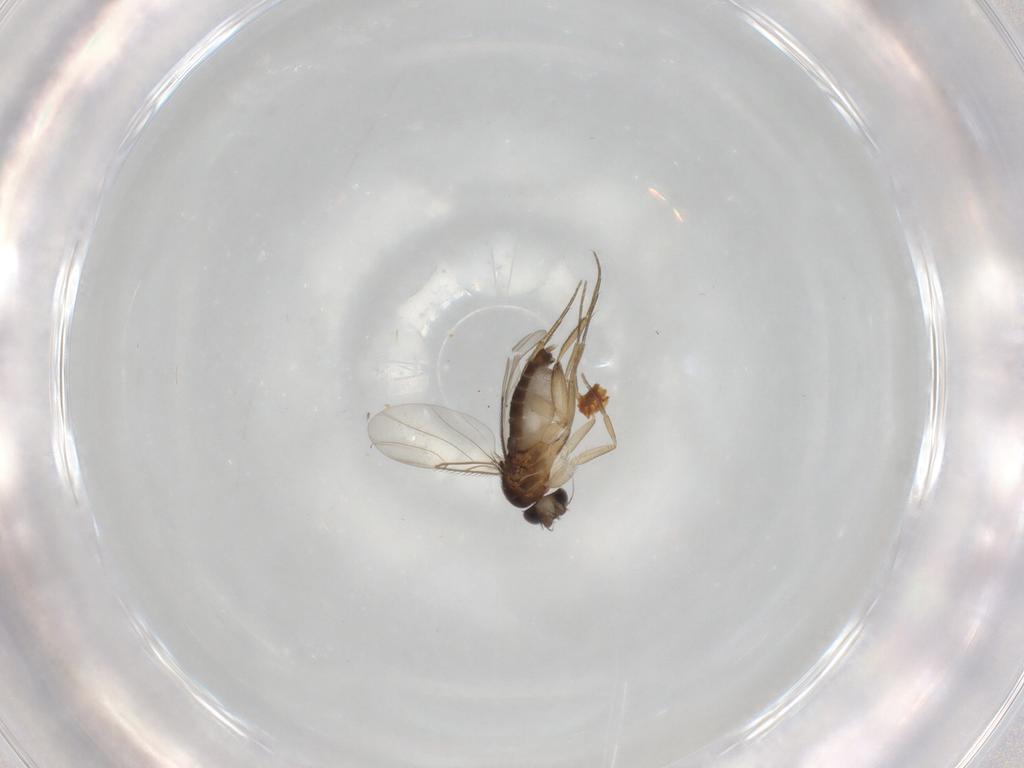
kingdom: Animalia
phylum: Arthropoda
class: Insecta
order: Diptera
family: Phoridae
